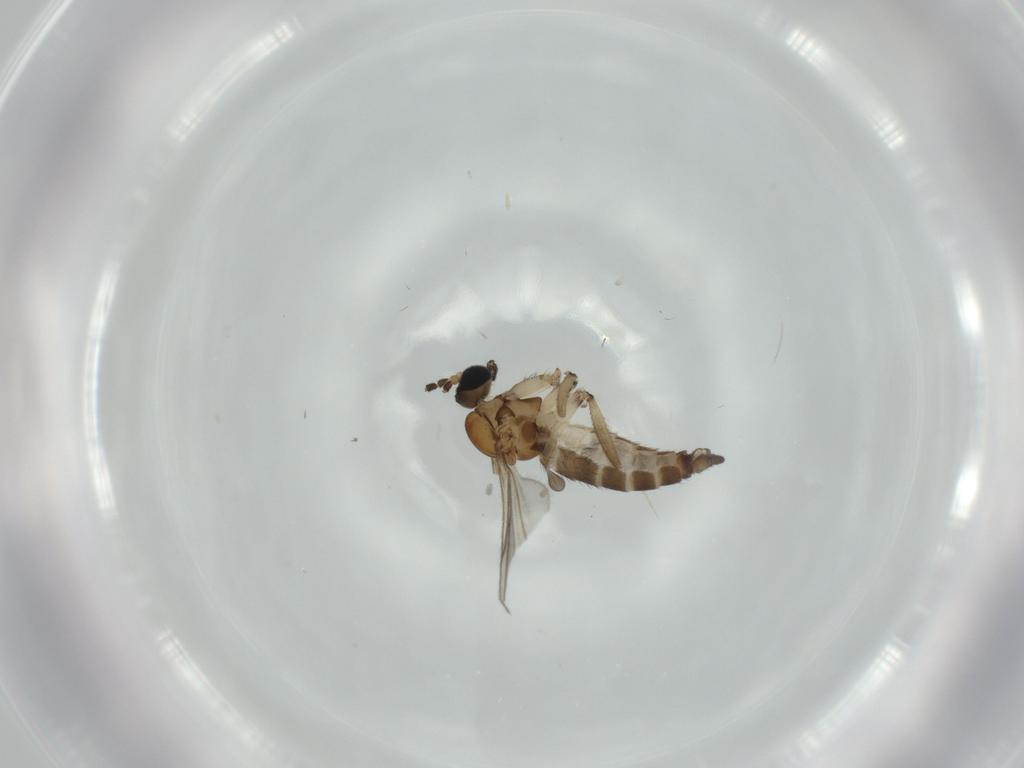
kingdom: Animalia
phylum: Arthropoda
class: Insecta
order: Diptera
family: Sciaridae
